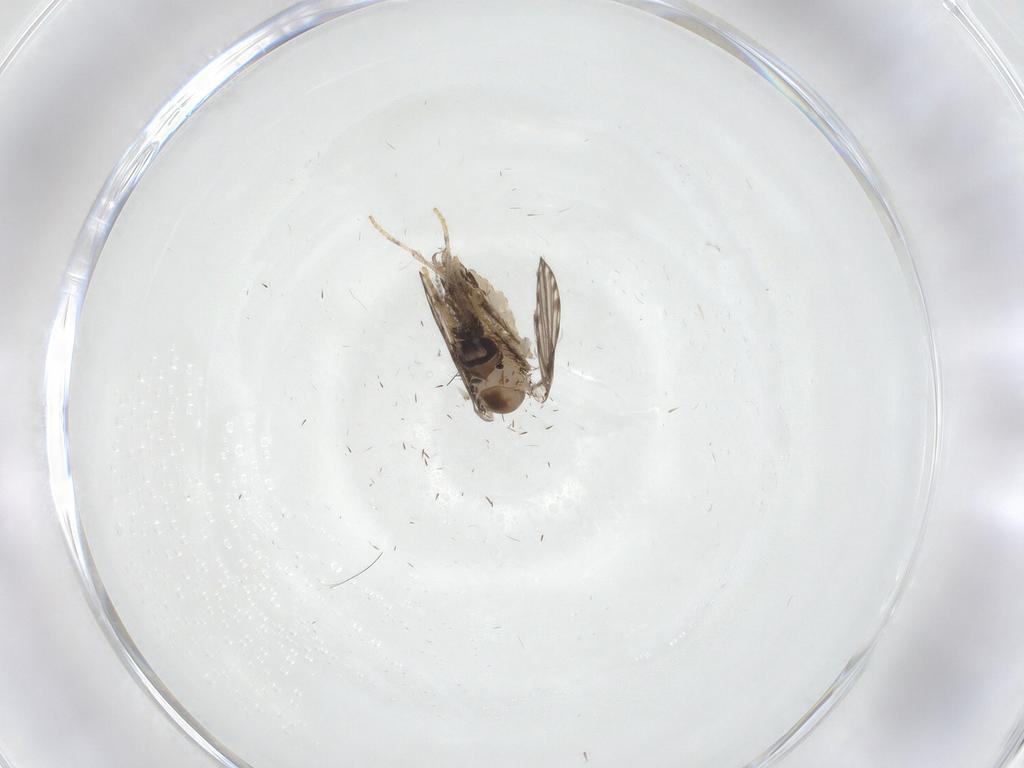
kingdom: Animalia
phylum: Arthropoda
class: Insecta
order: Diptera
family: Psychodidae
